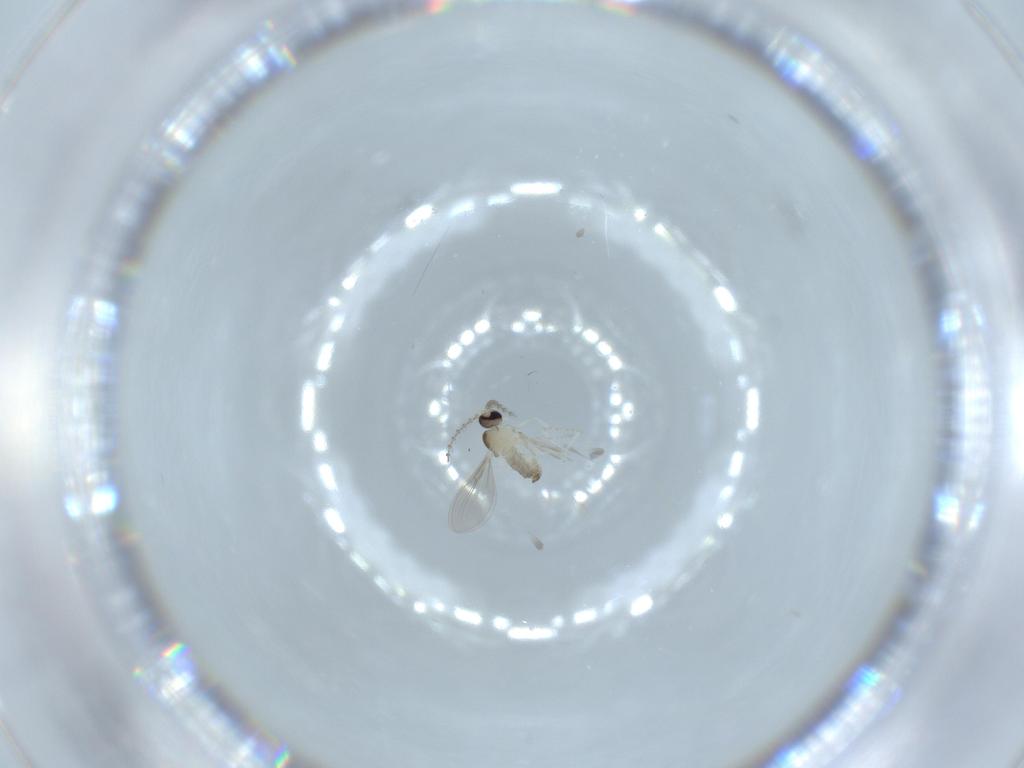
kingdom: Animalia
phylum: Arthropoda
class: Insecta
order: Diptera
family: Cecidomyiidae
